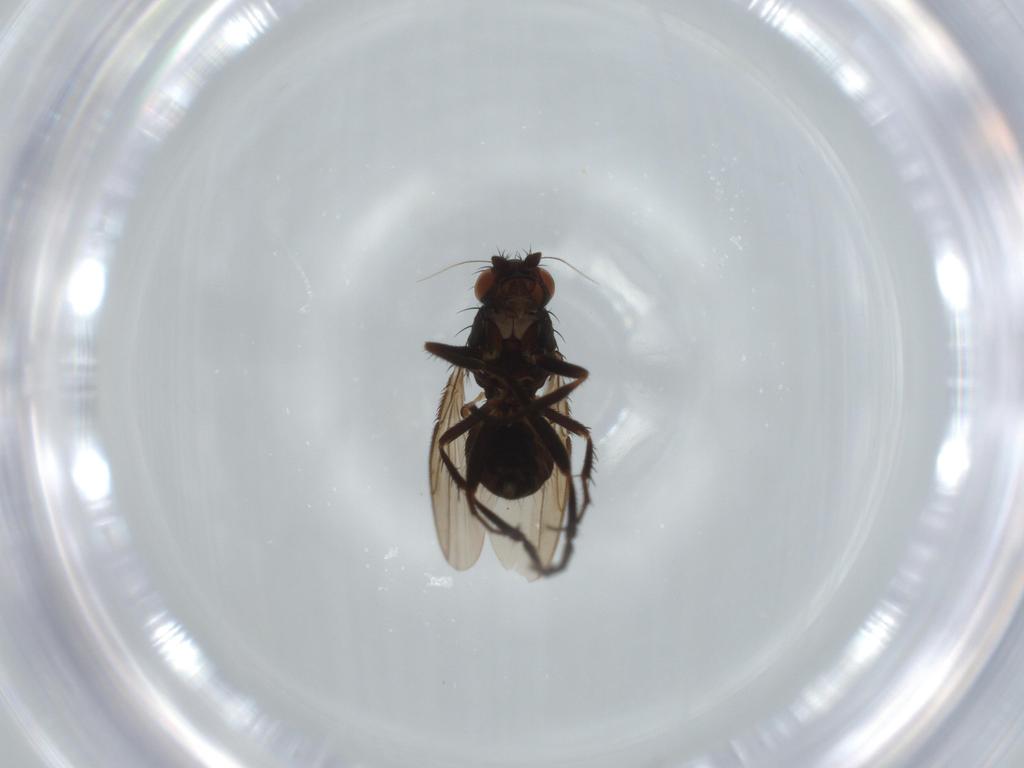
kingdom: Animalia
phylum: Arthropoda
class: Insecta
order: Diptera
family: Sphaeroceridae
